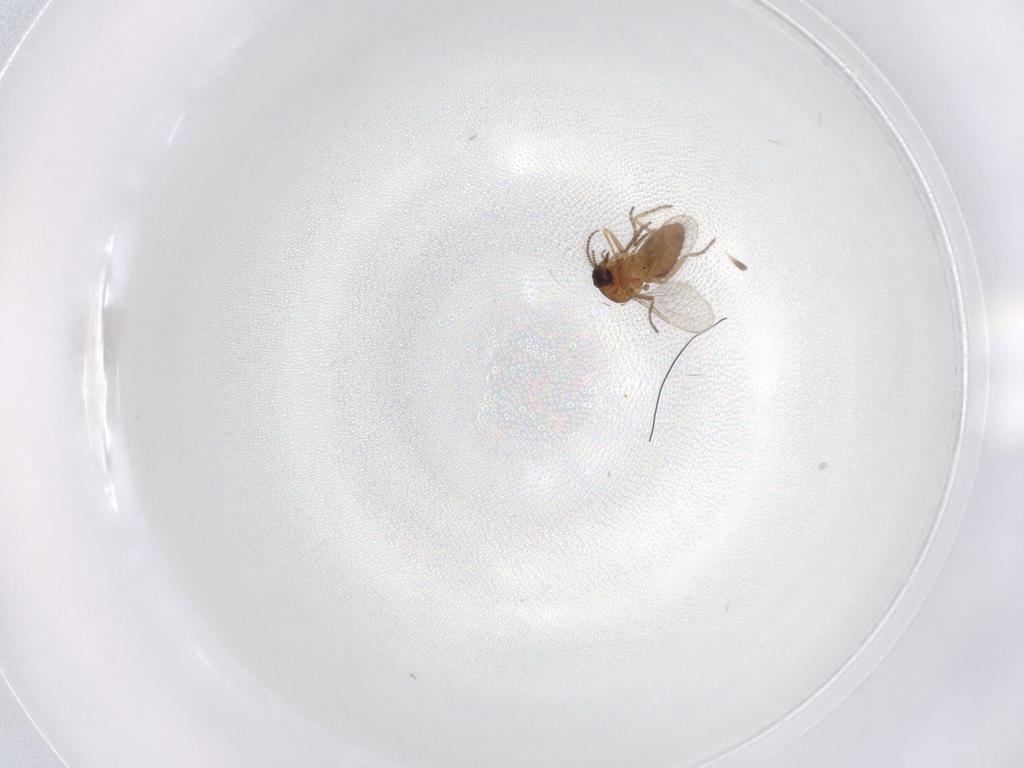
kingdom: Animalia
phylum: Arthropoda
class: Insecta
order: Diptera
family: Ceratopogonidae
